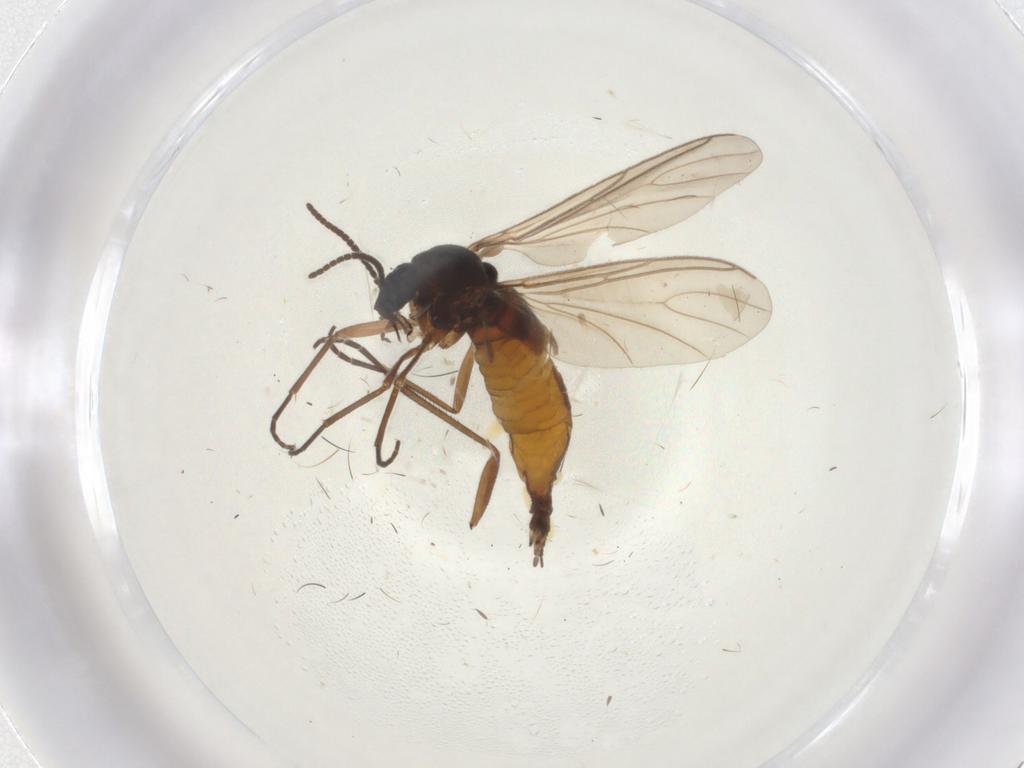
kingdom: Animalia
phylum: Arthropoda
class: Insecta
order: Diptera
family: Sciaridae
